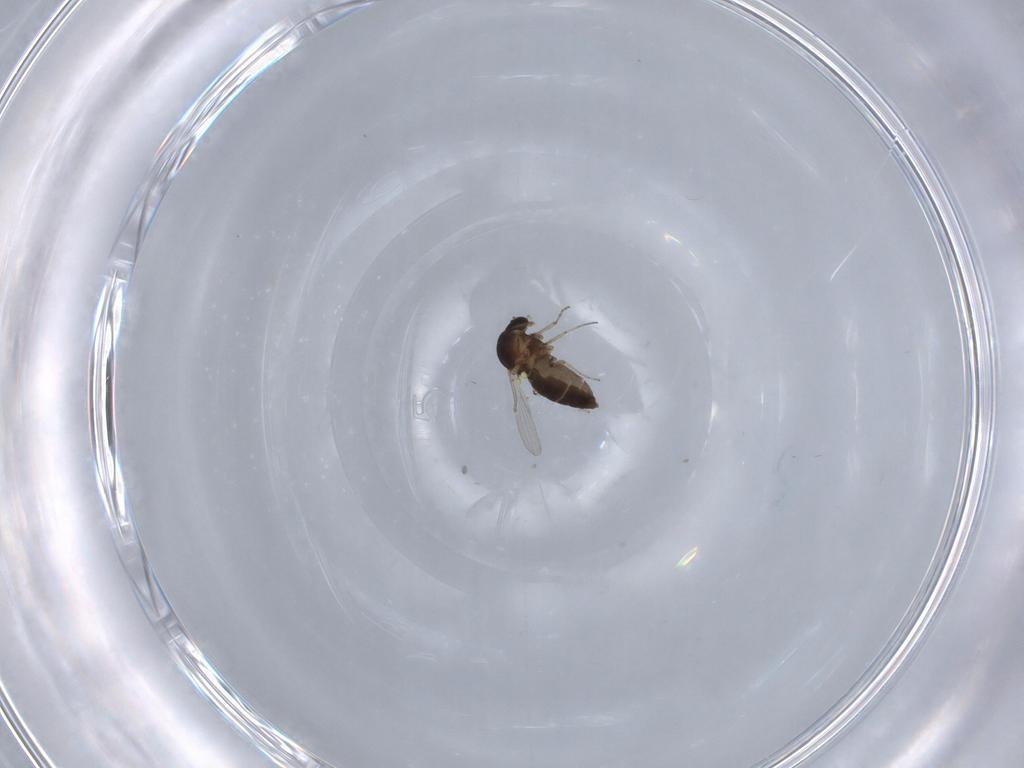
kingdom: Animalia
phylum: Arthropoda
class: Insecta
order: Diptera
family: Ceratopogonidae
